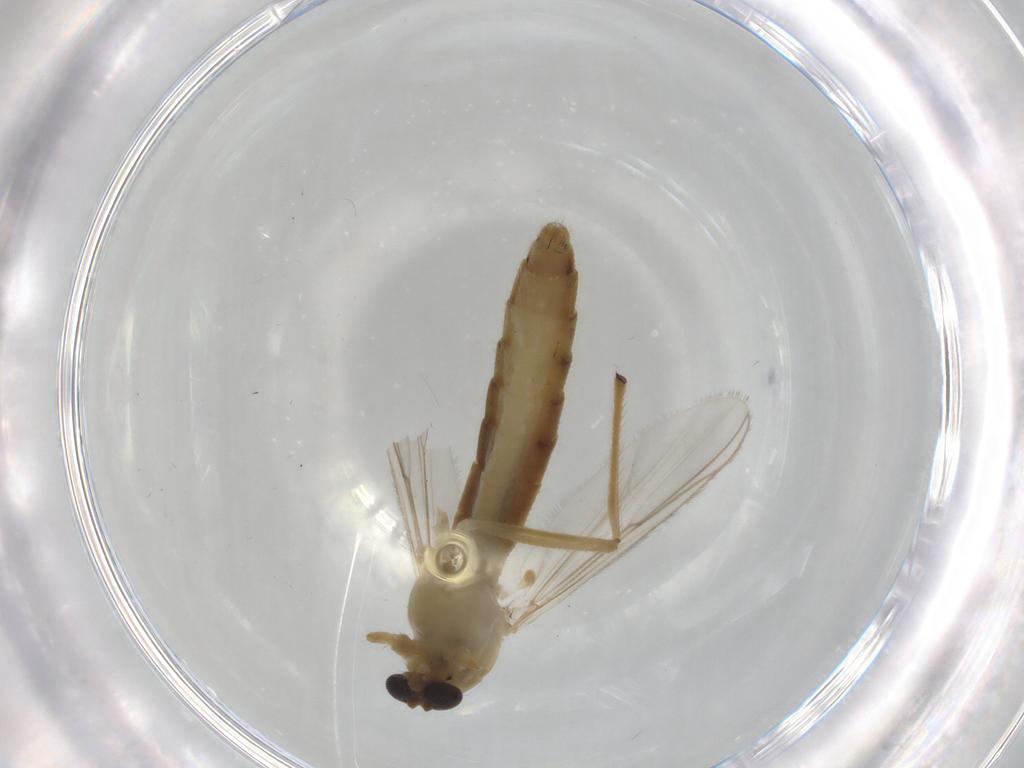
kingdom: Animalia
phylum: Arthropoda
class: Insecta
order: Diptera
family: Chironomidae
